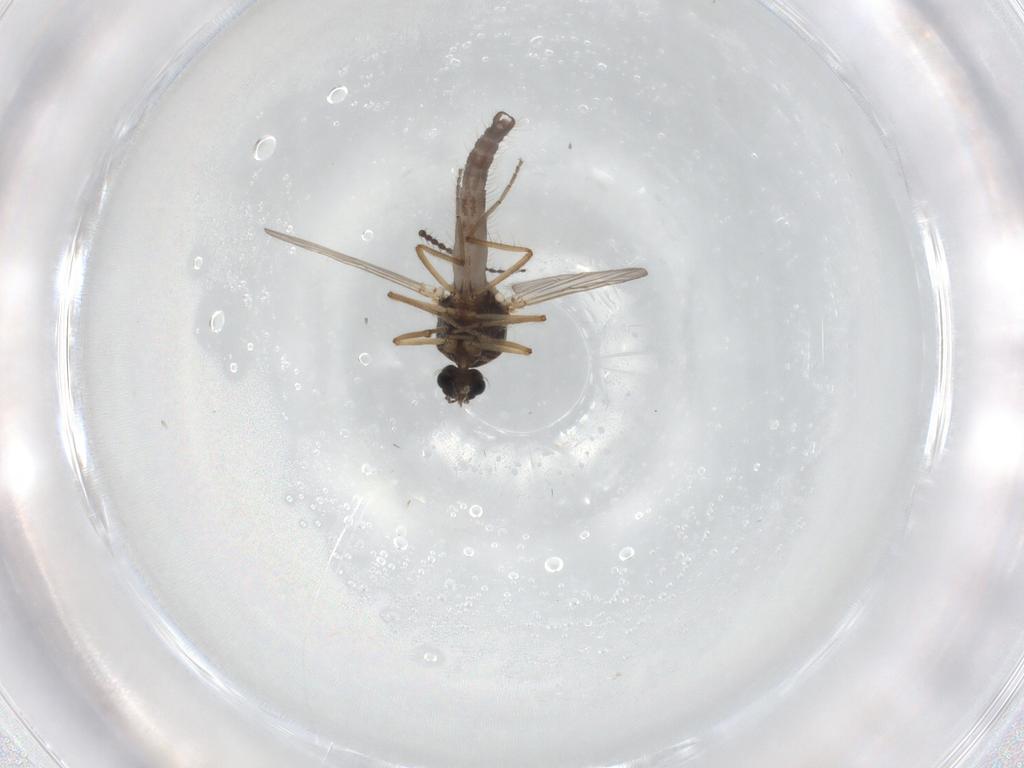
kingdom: Animalia
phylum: Arthropoda
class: Insecta
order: Diptera
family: Ceratopogonidae
